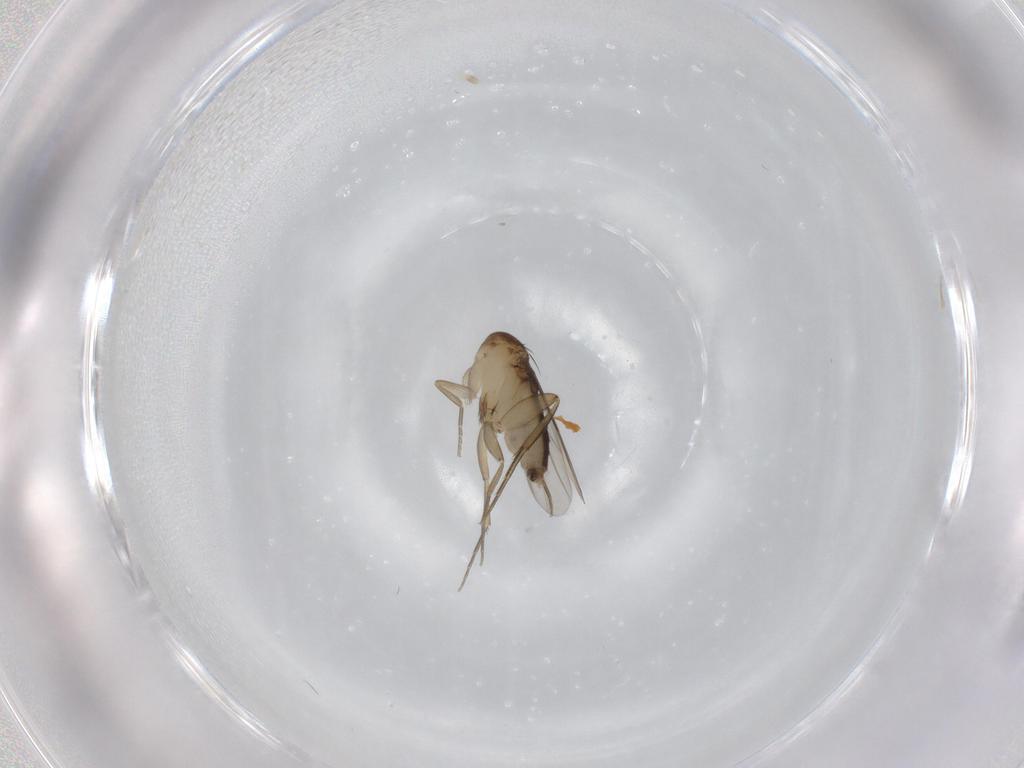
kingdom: Animalia
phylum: Arthropoda
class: Insecta
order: Diptera
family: Phoridae
